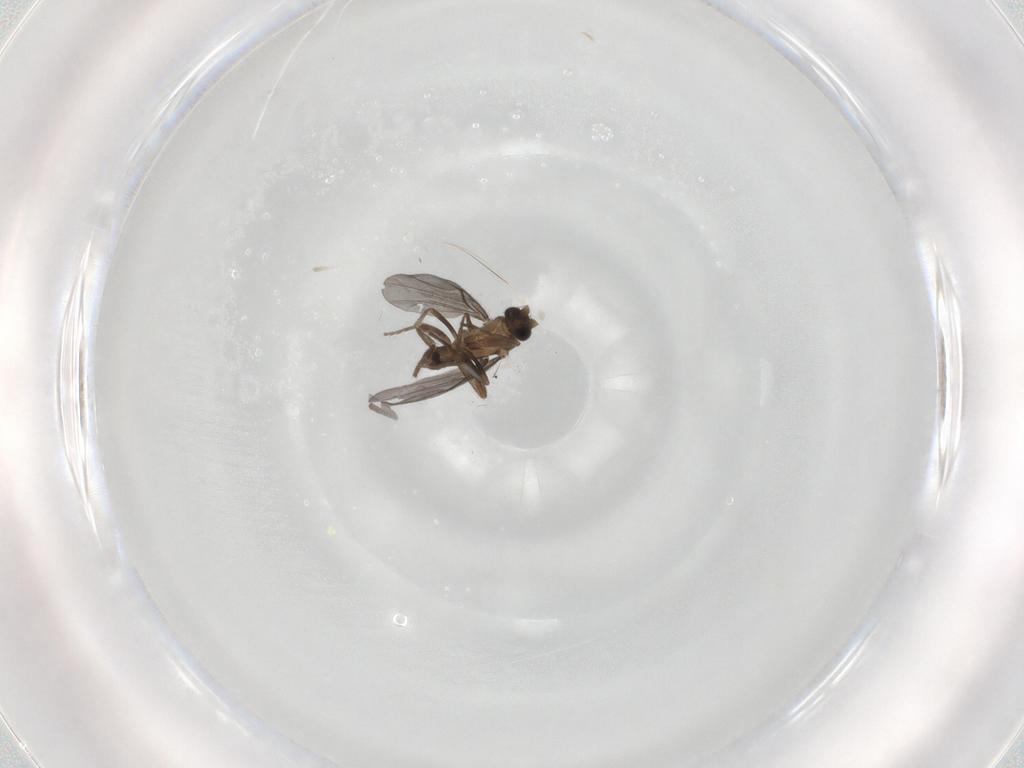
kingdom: Animalia
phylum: Arthropoda
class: Insecta
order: Diptera
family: Phoridae
